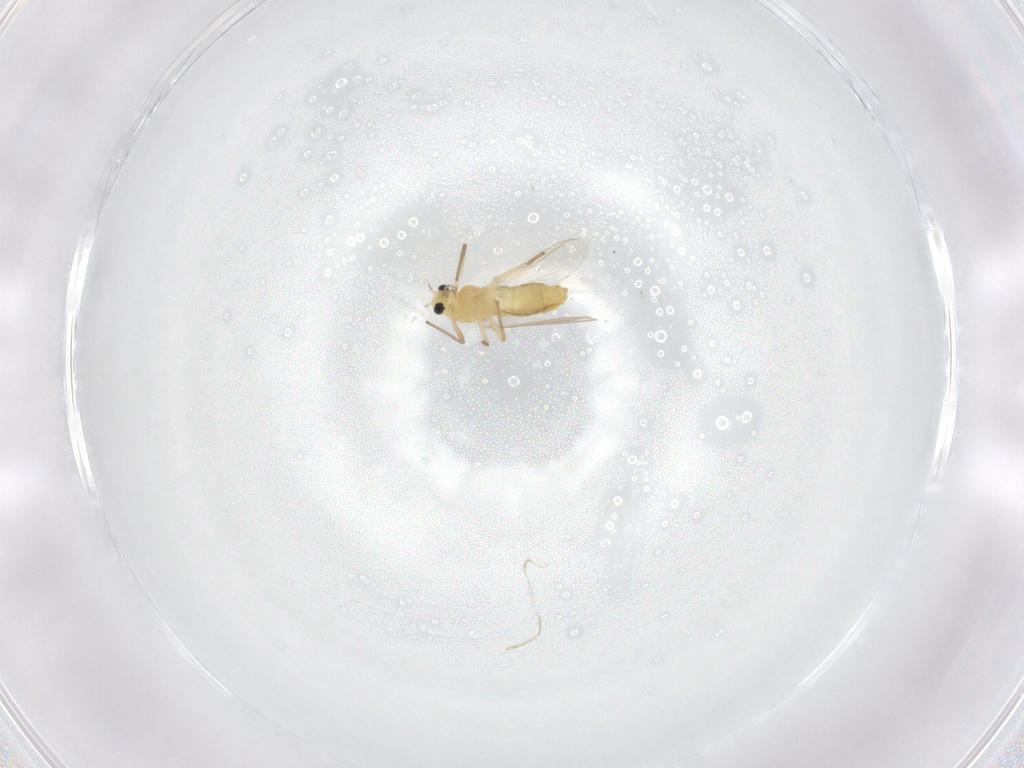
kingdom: Animalia
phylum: Arthropoda
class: Insecta
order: Diptera
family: Chironomidae
